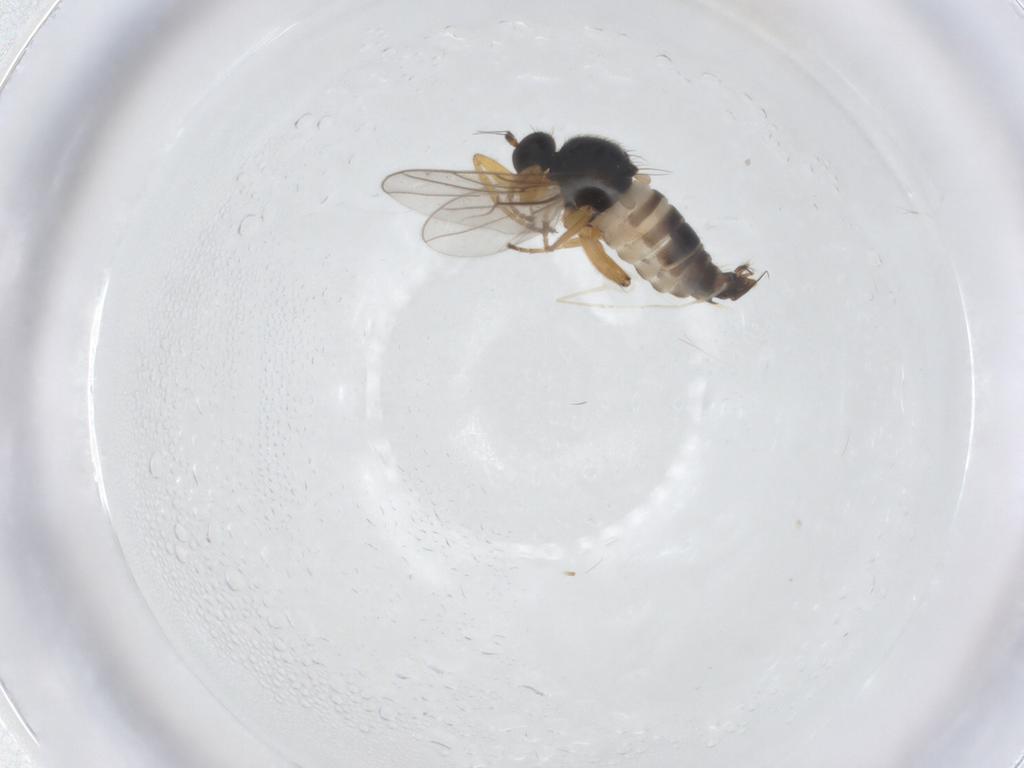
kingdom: Animalia
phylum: Arthropoda
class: Insecta
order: Diptera
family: Hybotidae
